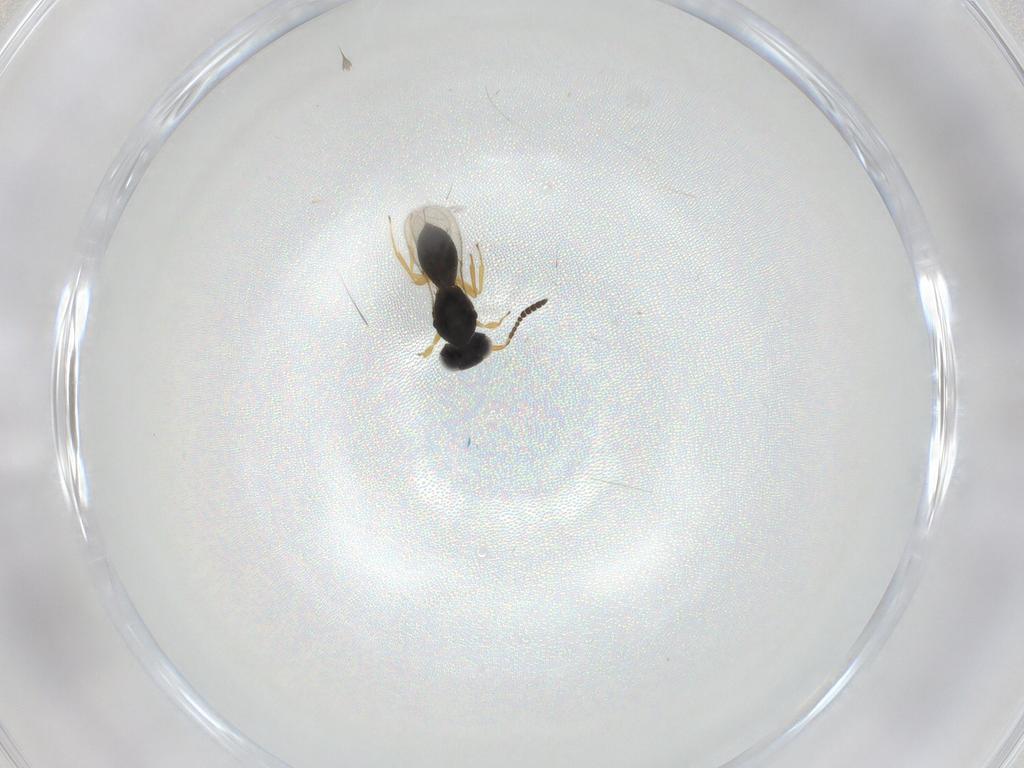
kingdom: Animalia
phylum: Arthropoda
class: Insecta
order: Hymenoptera
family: Scelionidae
